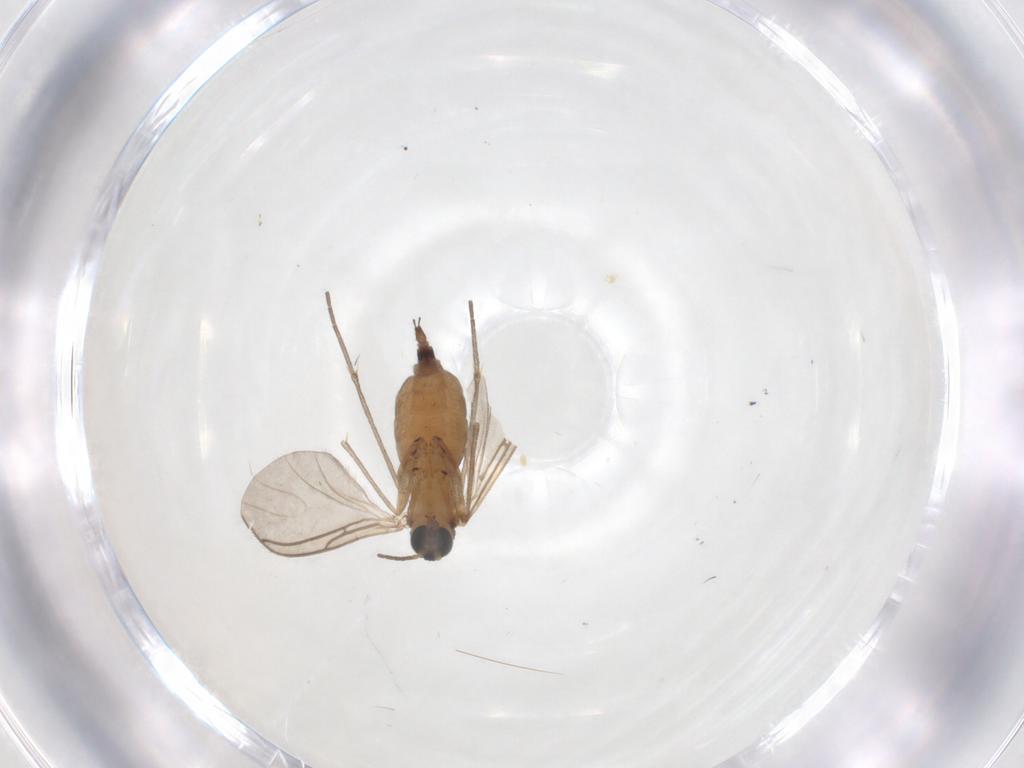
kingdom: Animalia
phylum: Arthropoda
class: Insecta
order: Diptera
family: Sciaridae
